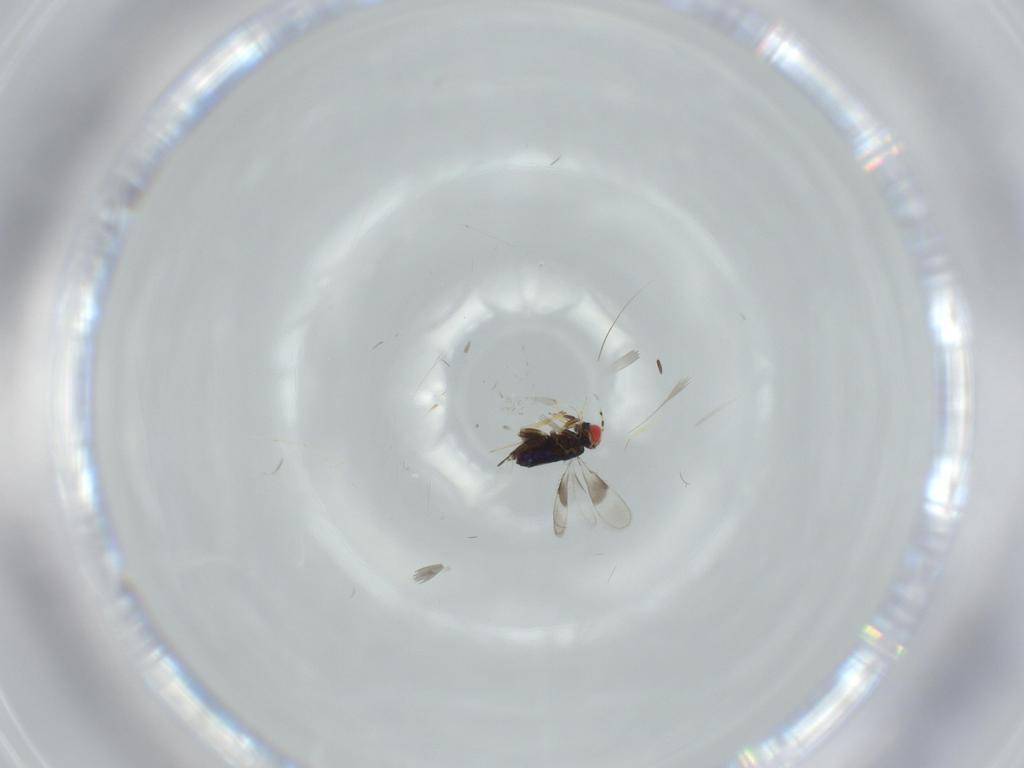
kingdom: Animalia
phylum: Arthropoda
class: Insecta
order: Hymenoptera
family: Azotidae
